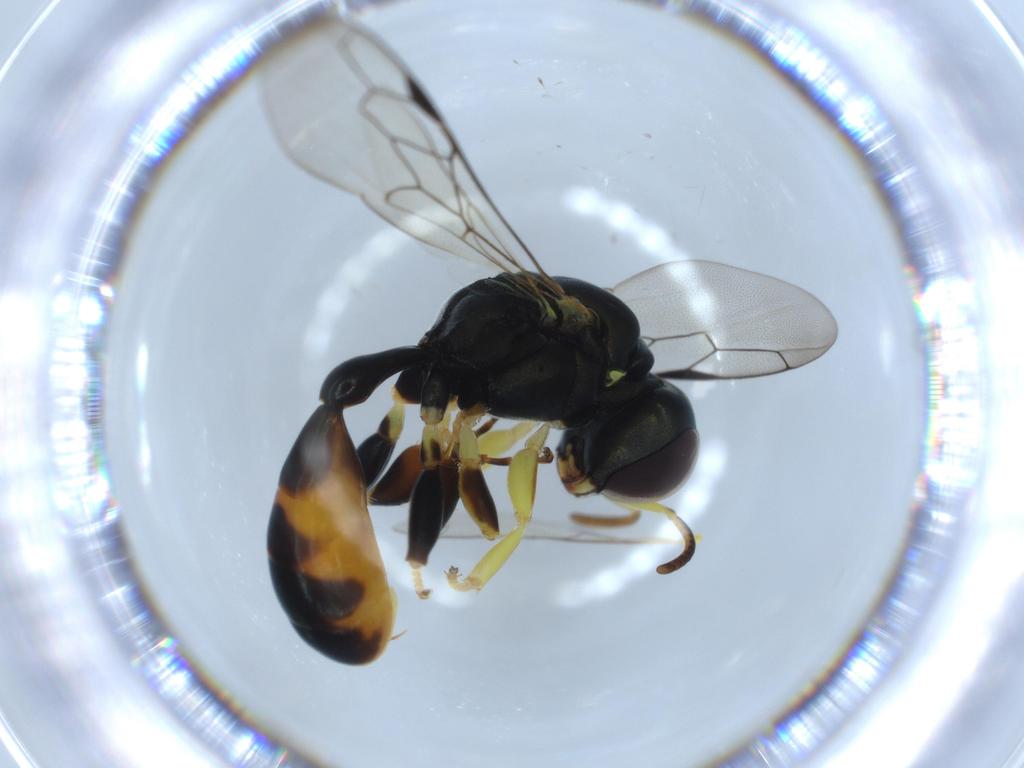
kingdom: Animalia
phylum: Arthropoda
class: Insecta
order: Hymenoptera
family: Crabronidae
